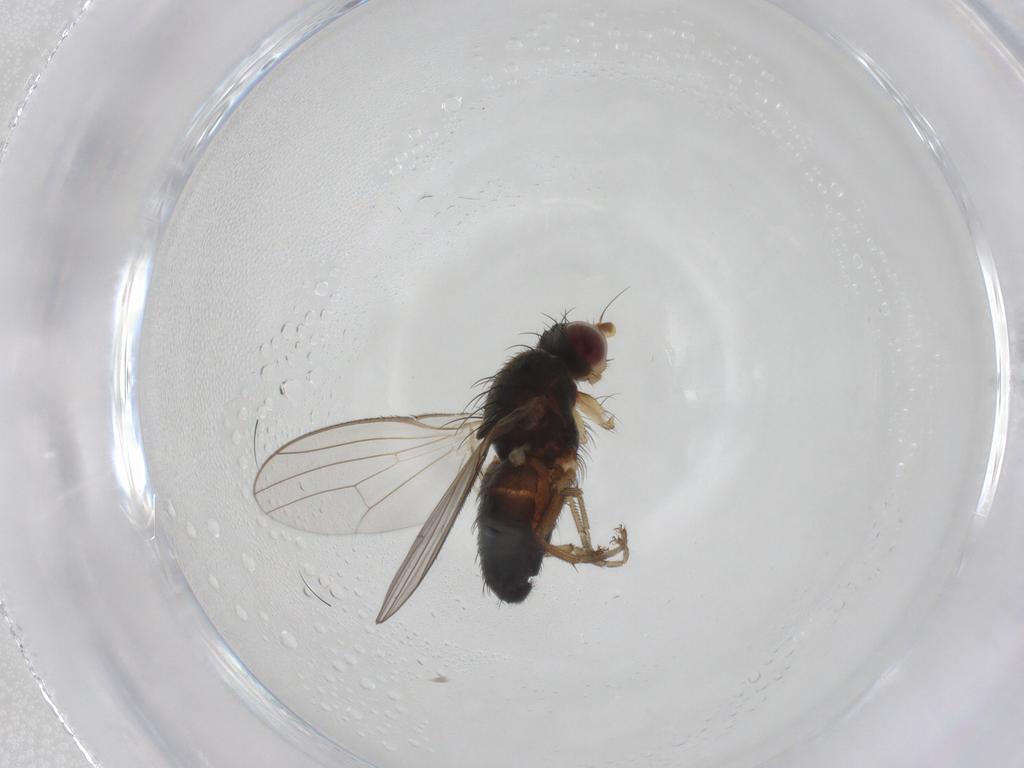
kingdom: Animalia
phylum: Arthropoda
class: Insecta
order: Diptera
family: Heleomyzidae
